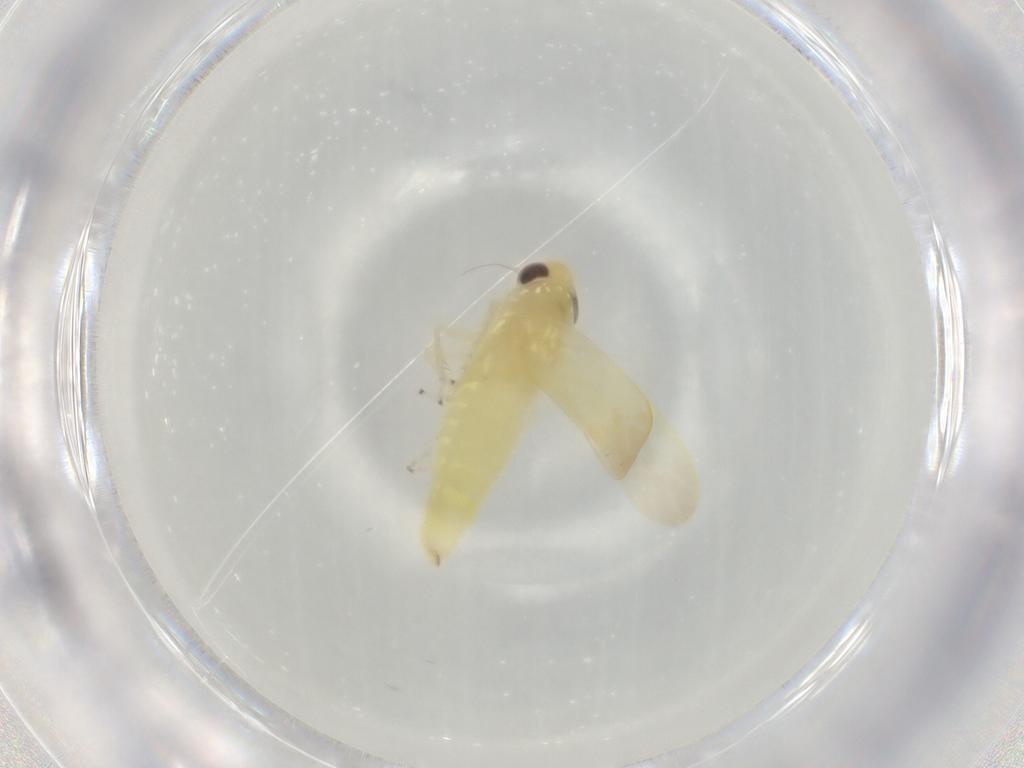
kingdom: Animalia
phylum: Arthropoda
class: Insecta
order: Hemiptera
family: Cicadellidae
